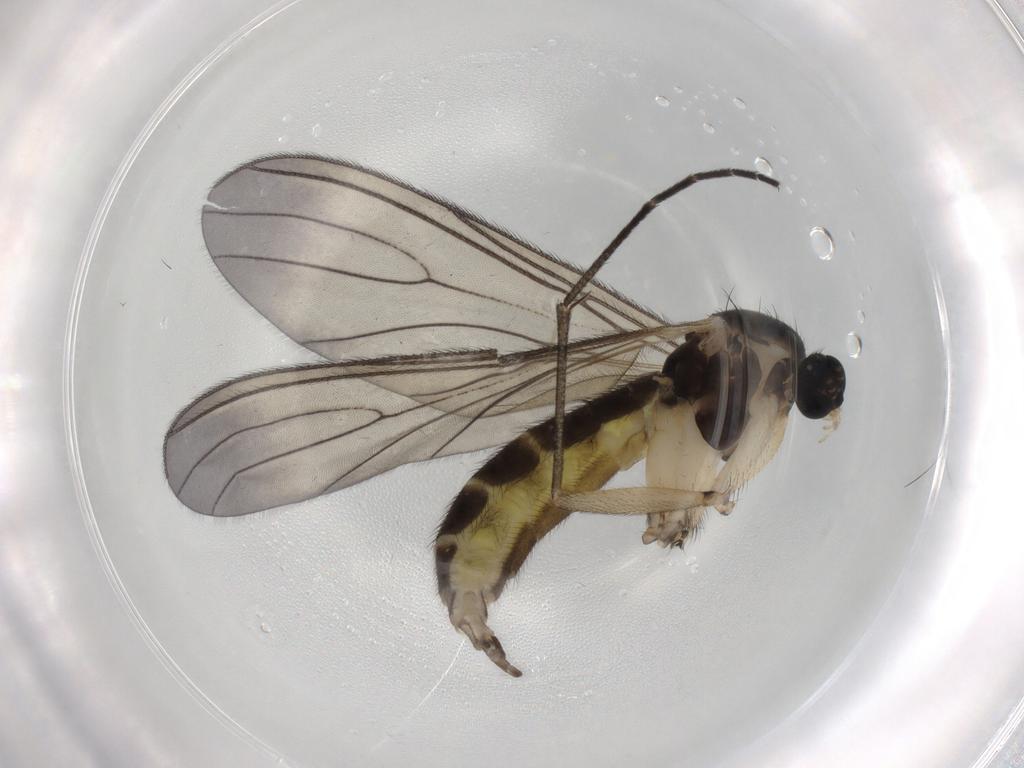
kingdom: Animalia
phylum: Arthropoda
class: Insecta
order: Diptera
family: Sciaridae
